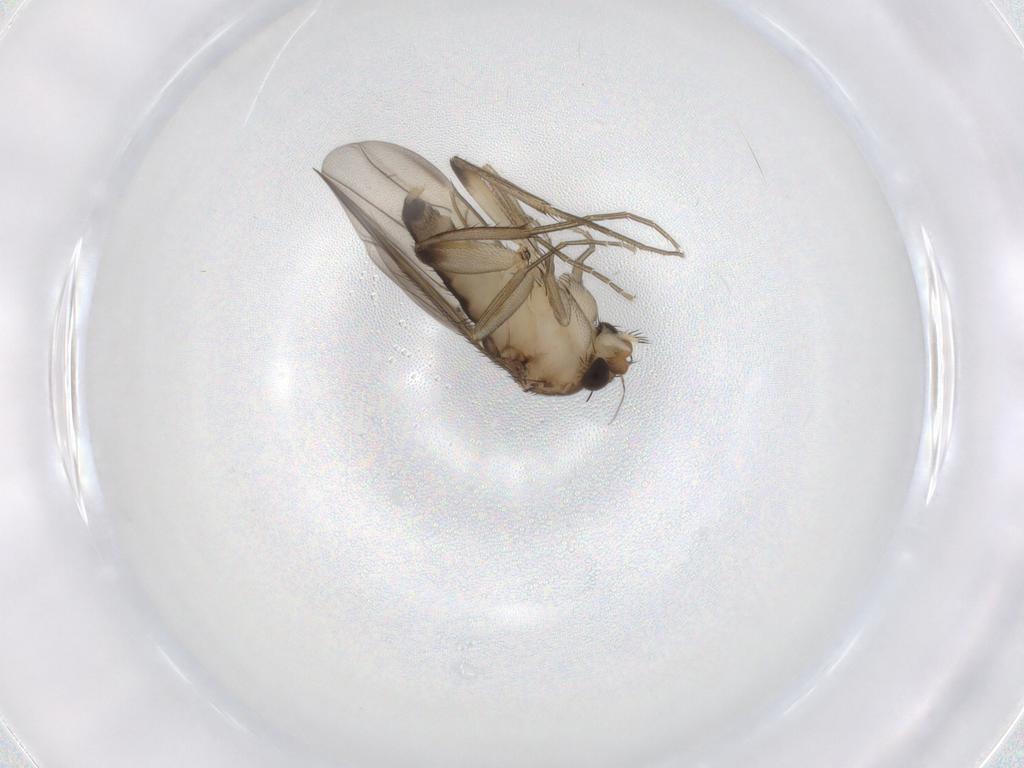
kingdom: Animalia
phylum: Arthropoda
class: Insecta
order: Diptera
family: Phoridae
